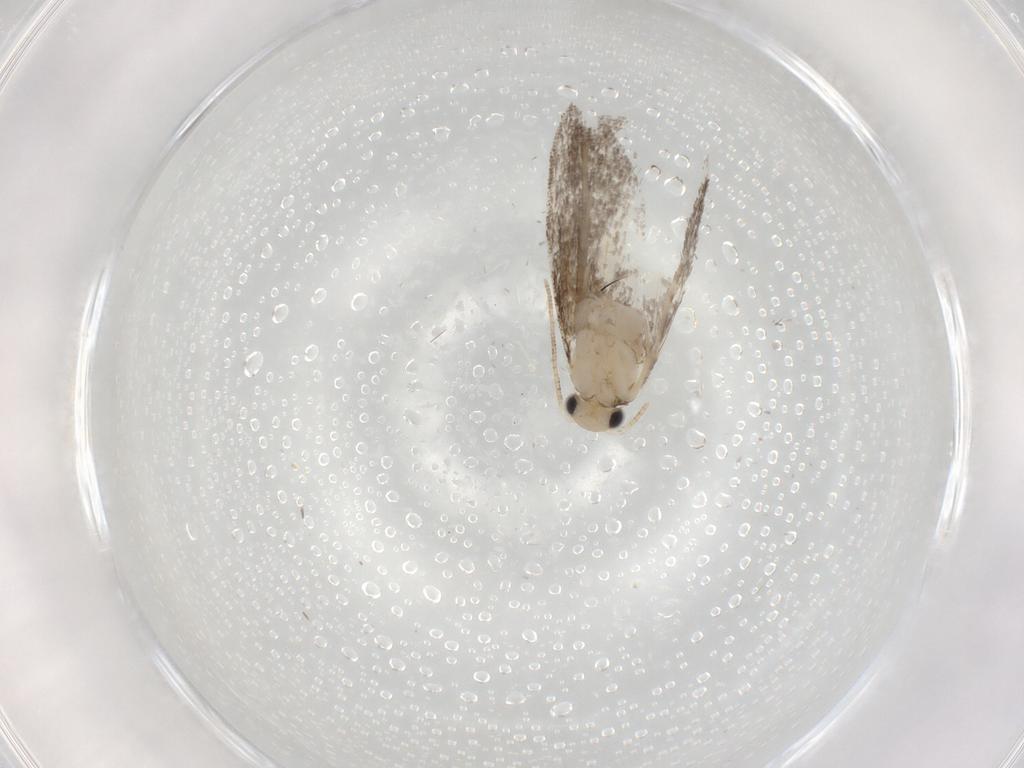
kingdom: Animalia
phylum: Arthropoda
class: Insecta
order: Lepidoptera
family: Tineidae
